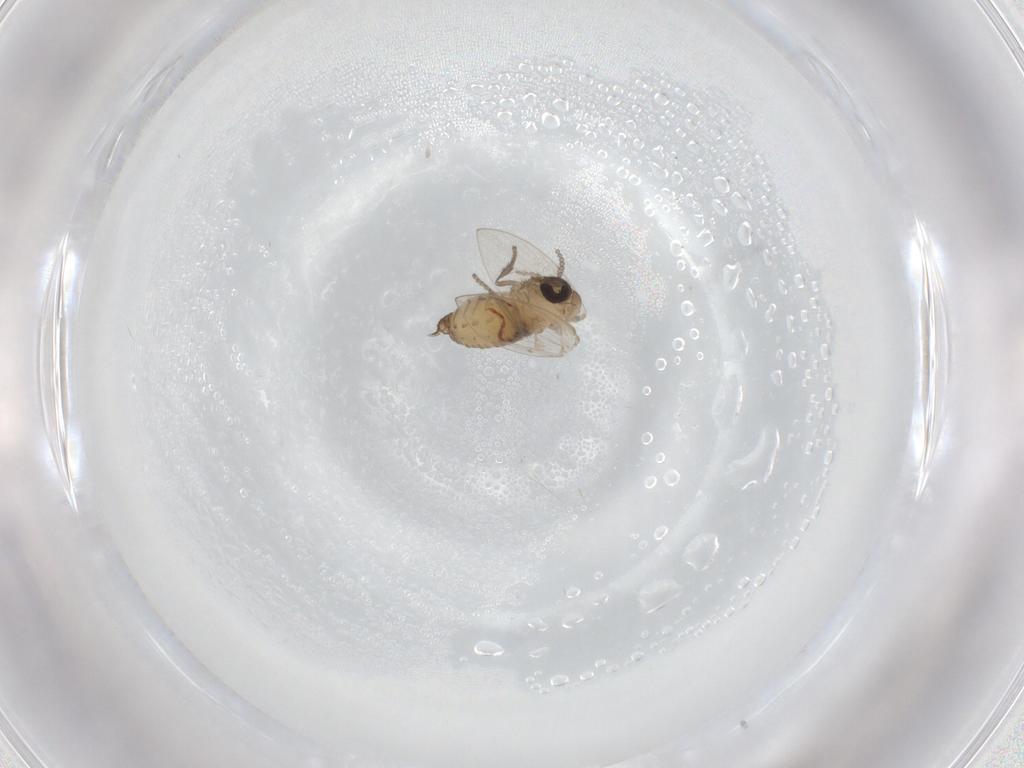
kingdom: Animalia
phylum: Arthropoda
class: Insecta
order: Diptera
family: Psychodidae
